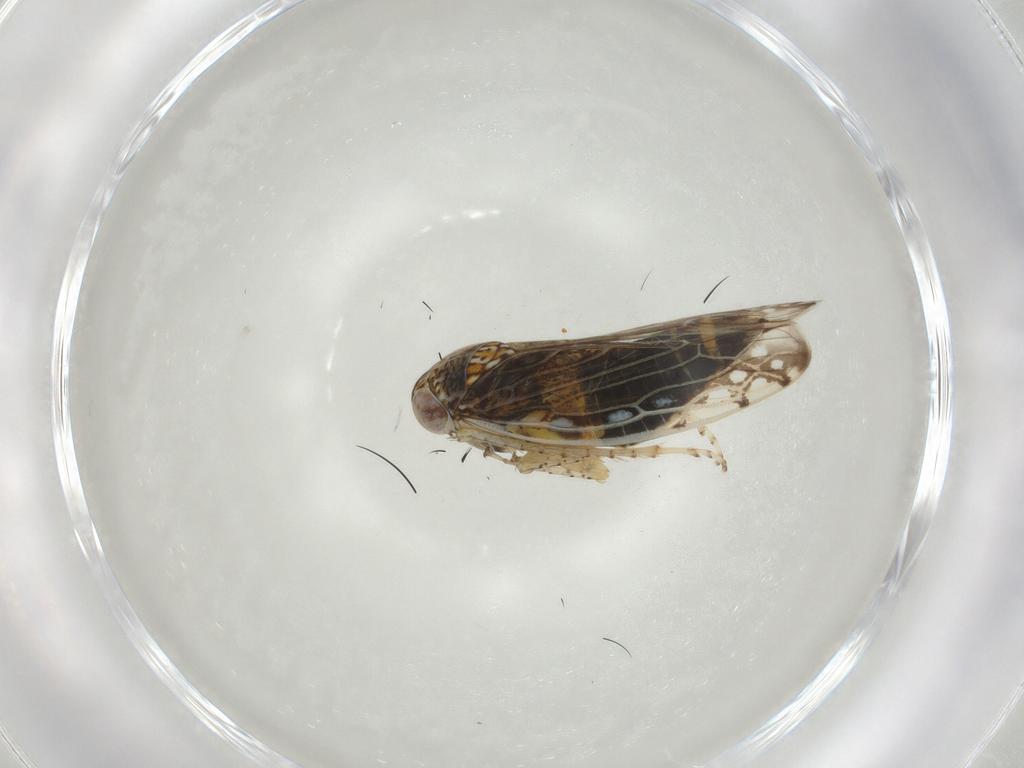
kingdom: Animalia
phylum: Arthropoda
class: Insecta
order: Hemiptera
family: Cicadellidae
